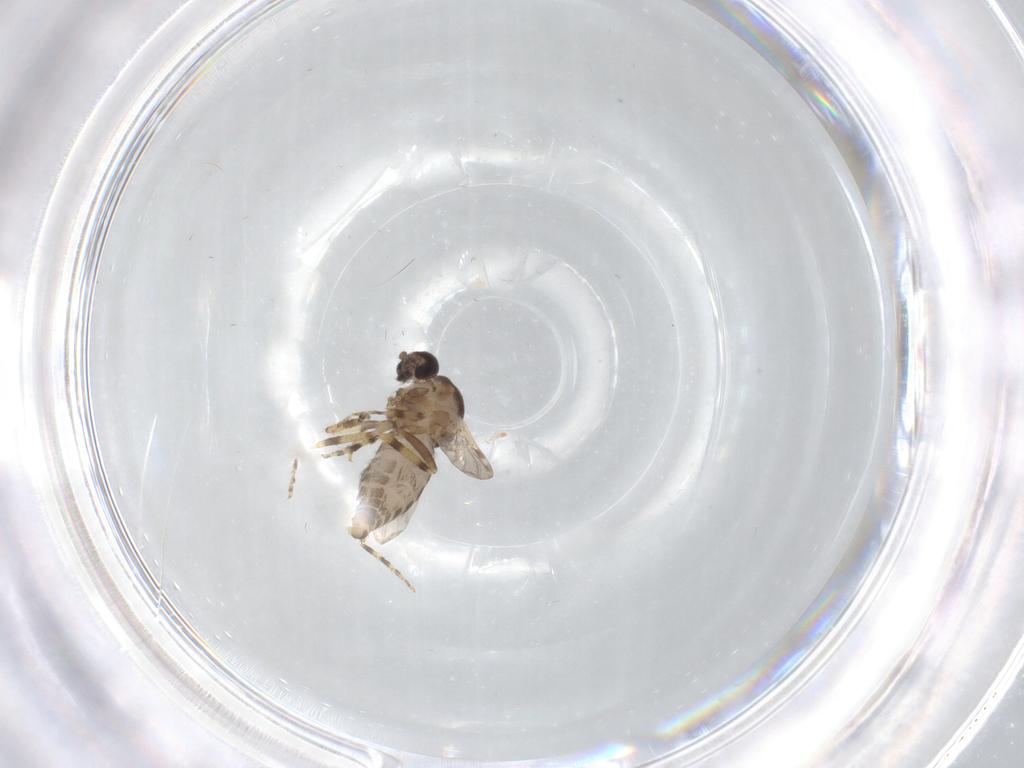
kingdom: Animalia
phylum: Arthropoda
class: Insecta
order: Diptera
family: Ceratopogonidae
